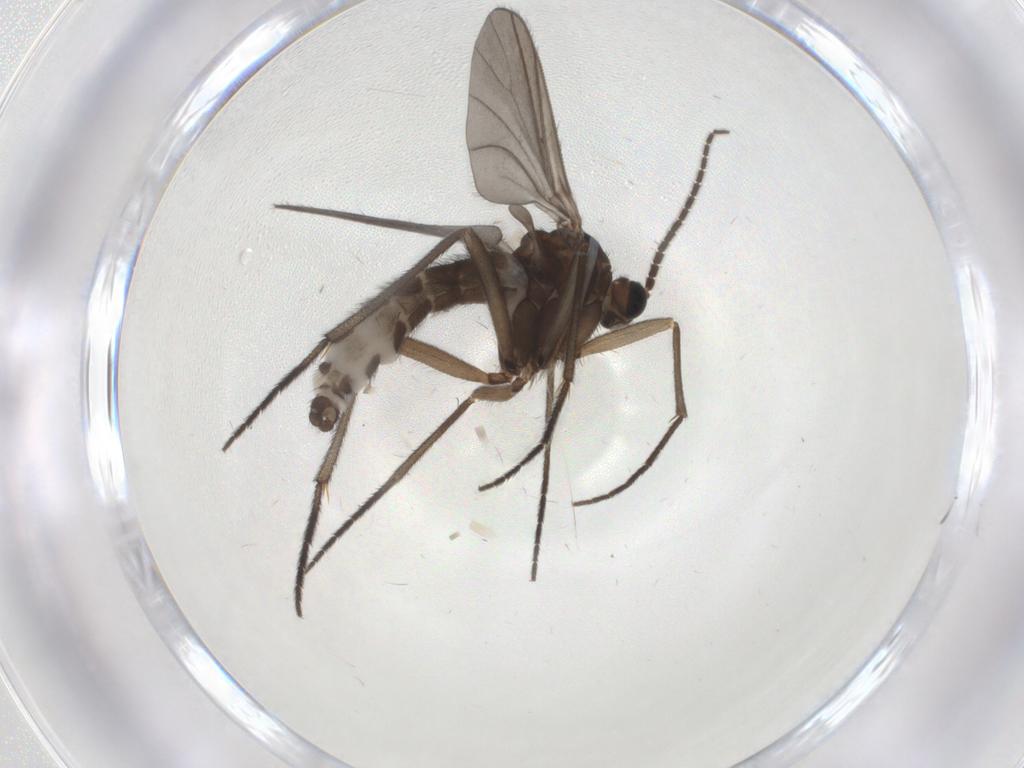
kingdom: Animalia
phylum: Arthropoda
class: Insecta
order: Diptera
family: Sciaridae
